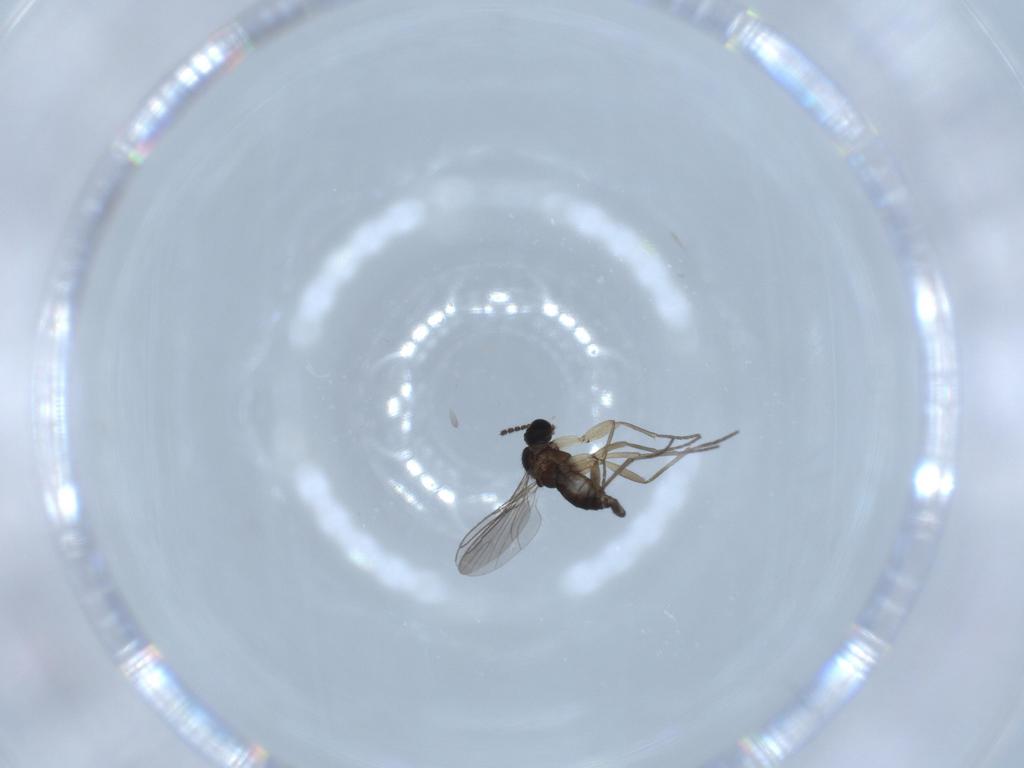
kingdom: Animalia
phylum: Arthropoda
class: Insecta
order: Diptera
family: Sciaridae
